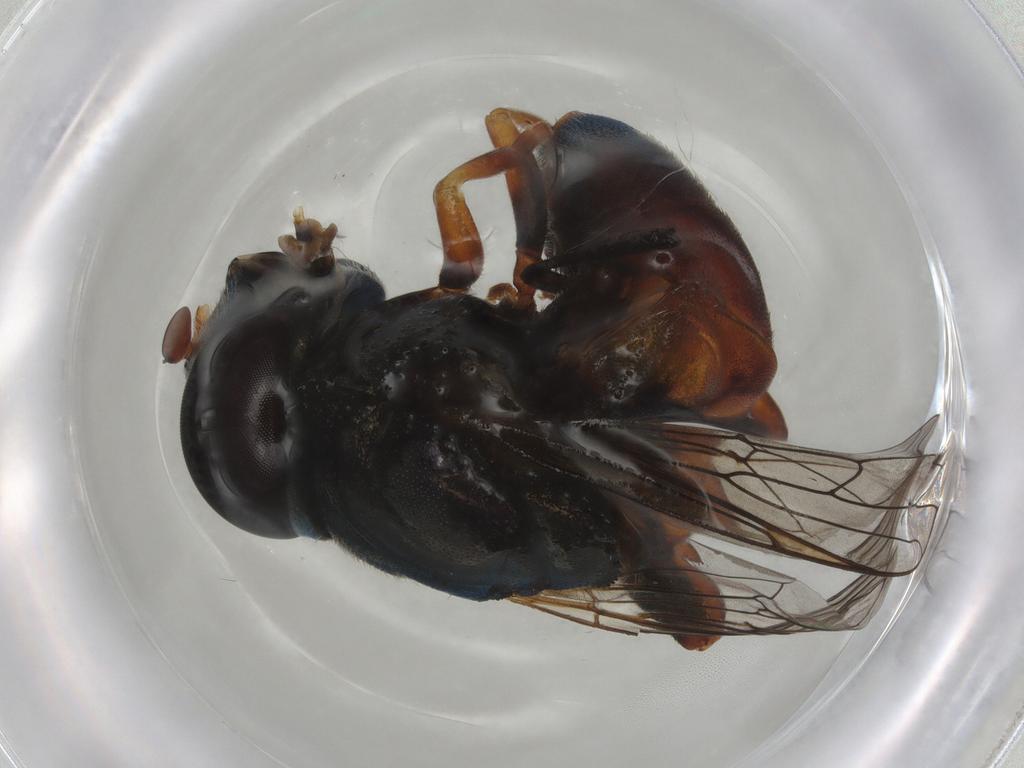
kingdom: Animalia
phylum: Arthropoda
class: Insecta
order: Diptera
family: Syrphidae
